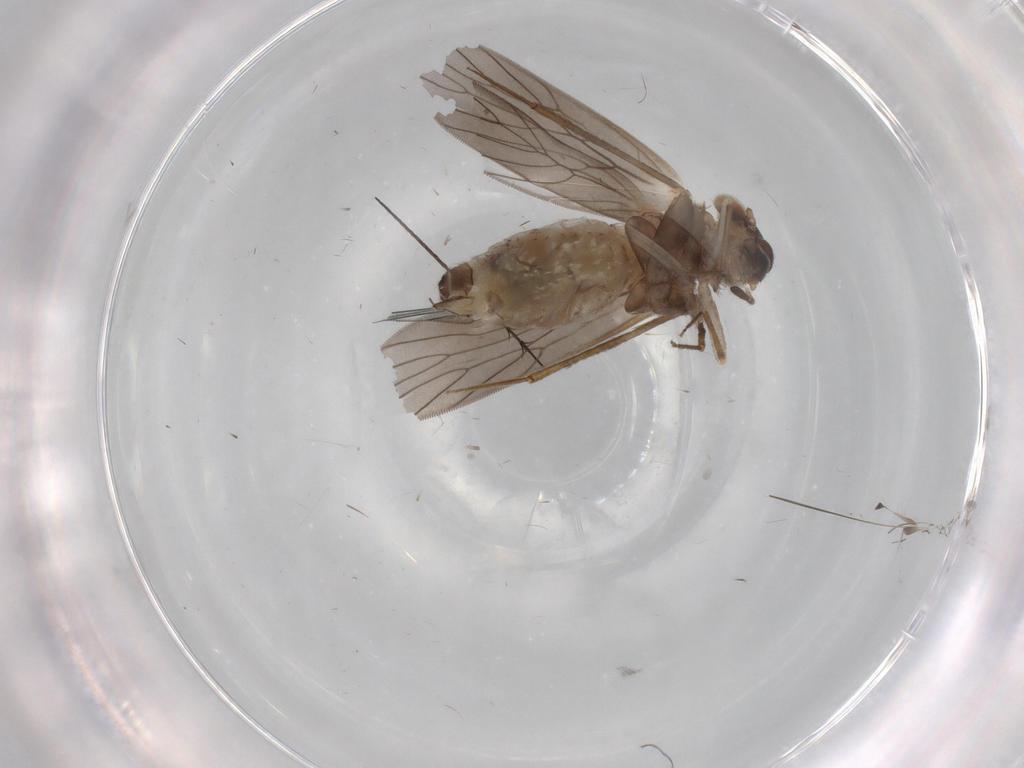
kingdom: Animalia
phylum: Arthropoda
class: Insecta
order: Psocodea
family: Lepidopsocidae
